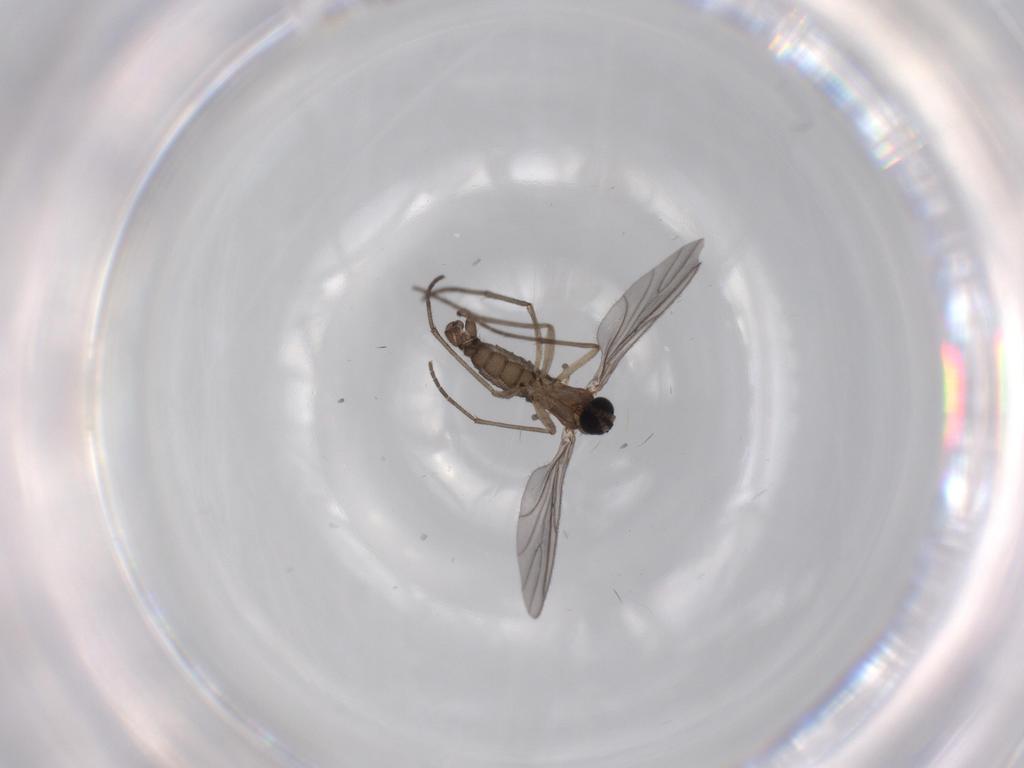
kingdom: Animalia
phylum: Arthropoda
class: Insecta
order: Diptera
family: Sciaridae
